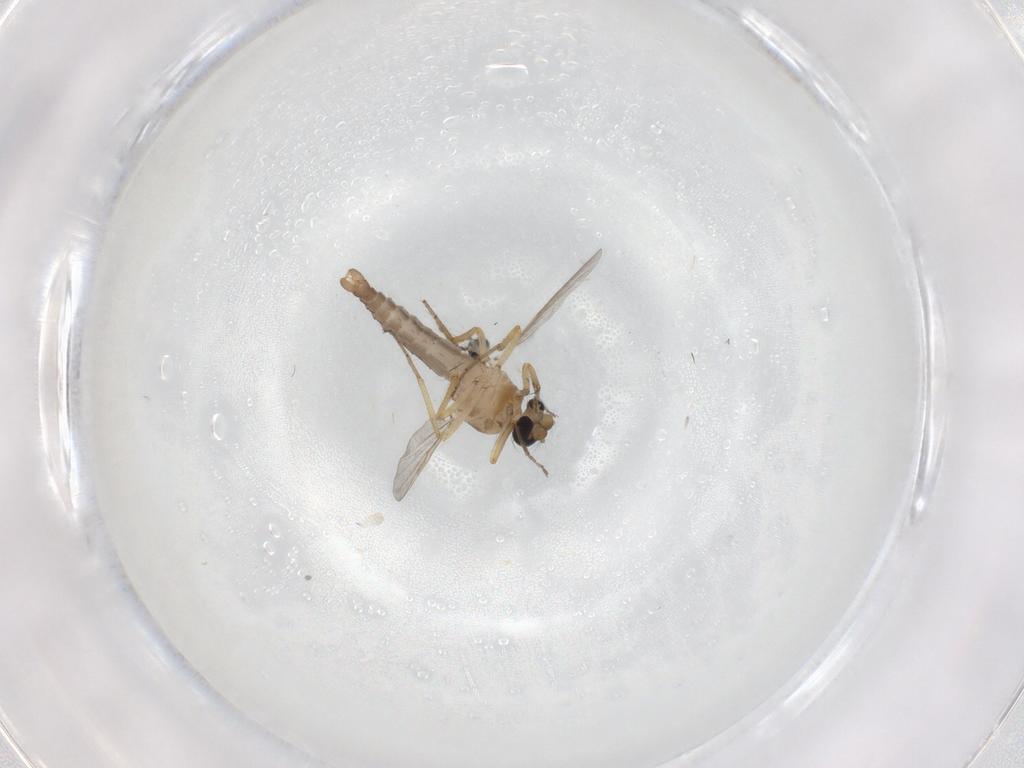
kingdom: Animalia
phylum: Arthropoda
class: Insecta
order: Diptera
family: Ceratopogonidae
